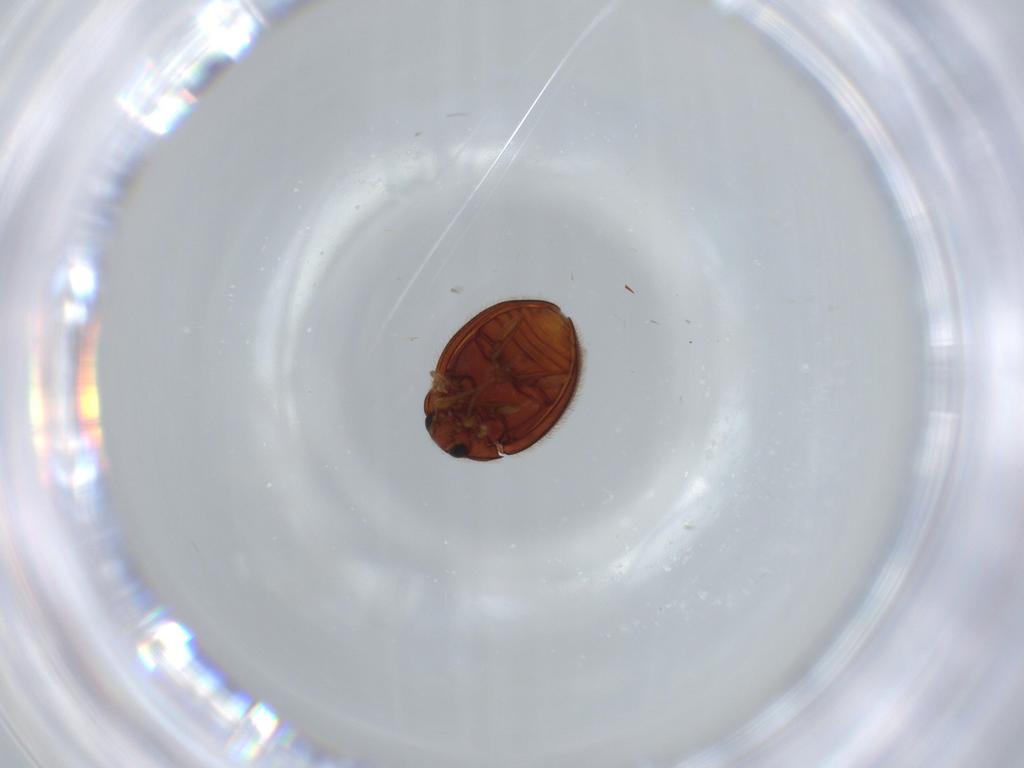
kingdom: Animalia
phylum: Arthropoda
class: Insecta
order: Coleoptera
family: Anamorphidae
